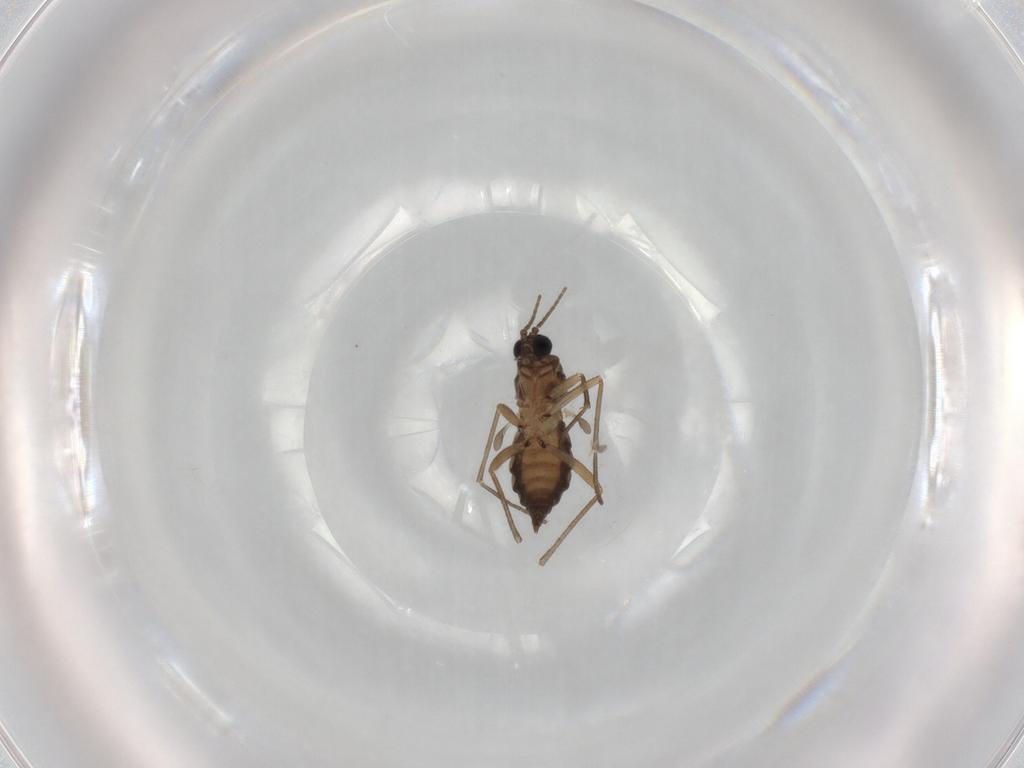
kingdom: Animalia
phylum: Arthropoda
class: Insecta
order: Diptera
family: Sciaridae
